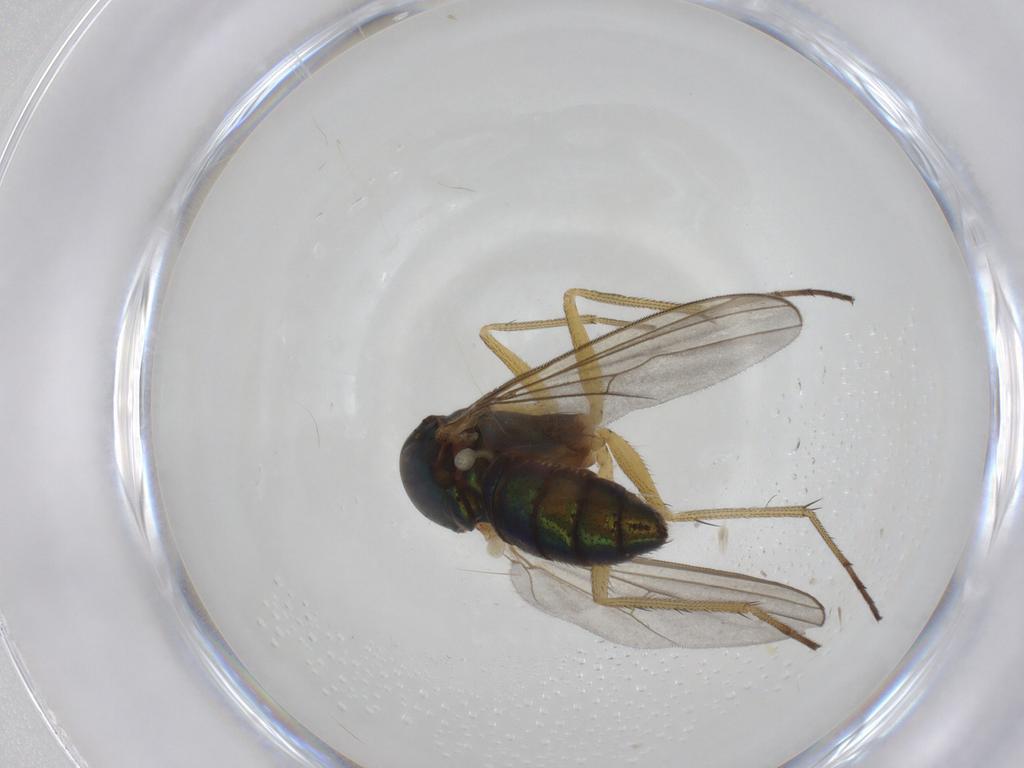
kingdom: Animalia
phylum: Arthropoda
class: Insecta
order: Diptera
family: Dolichopodidae
